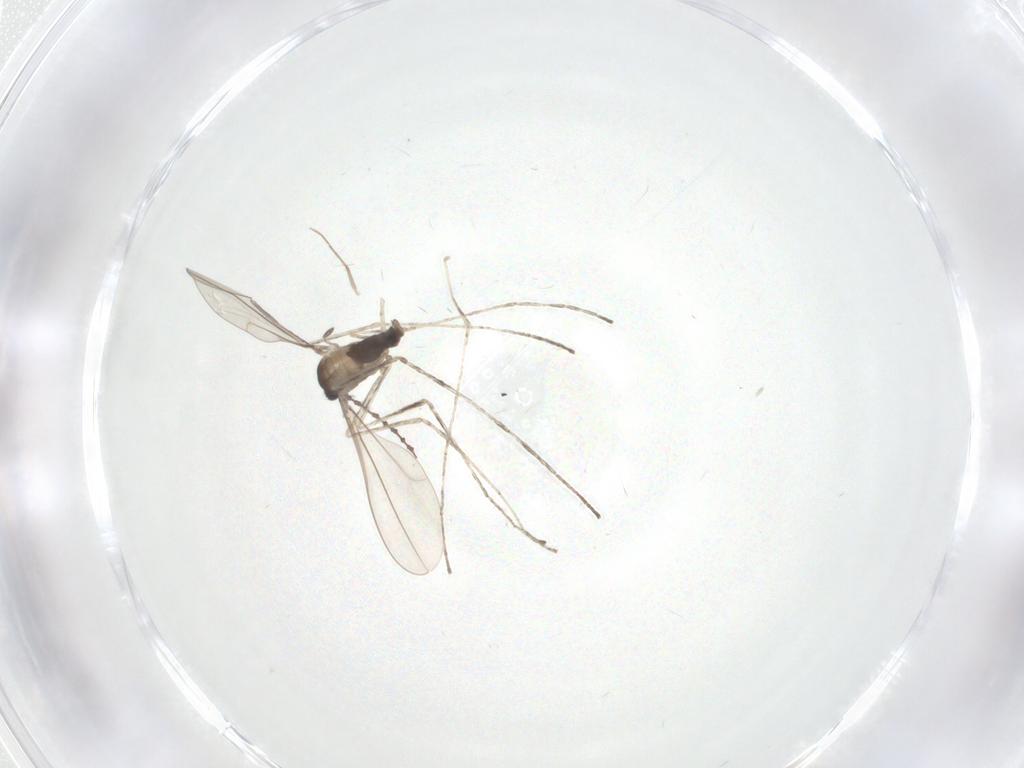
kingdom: Animalia
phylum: Arthropoda
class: Insecta
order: Diptera
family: Cecidomyiidae
